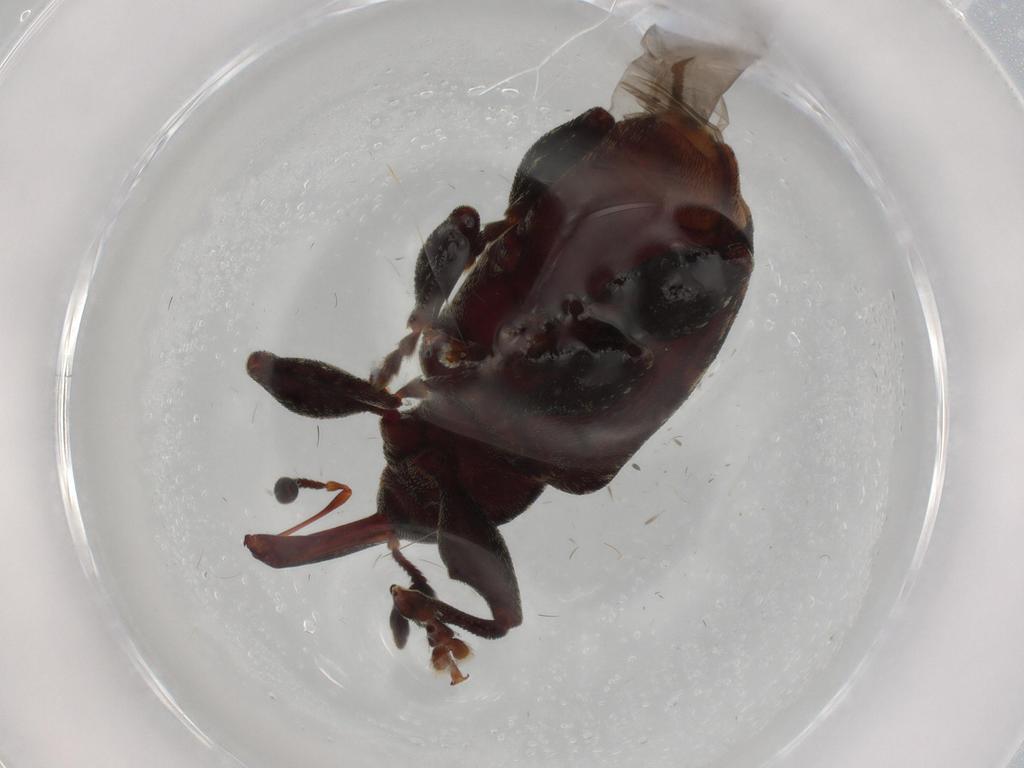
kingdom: Animalia
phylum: Arthropoda
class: Insecta
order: Coleoptera
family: Curculionidae
